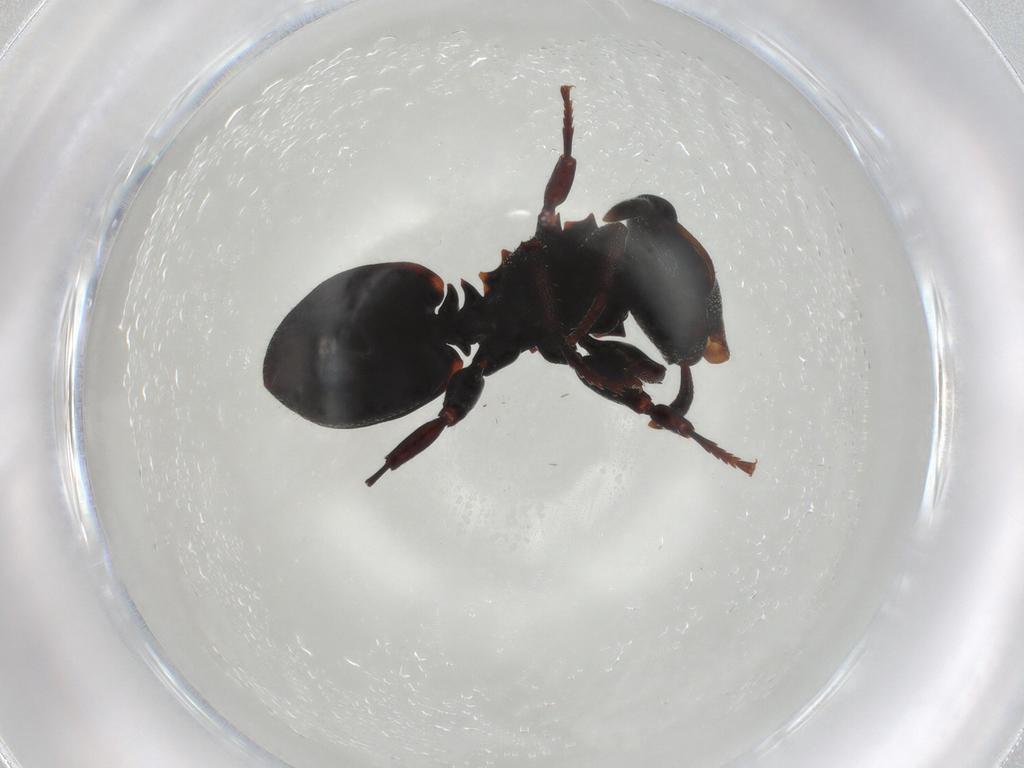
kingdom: Animalia
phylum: Arthropoda
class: Insecta
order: Hymenoptera
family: Formicidae
